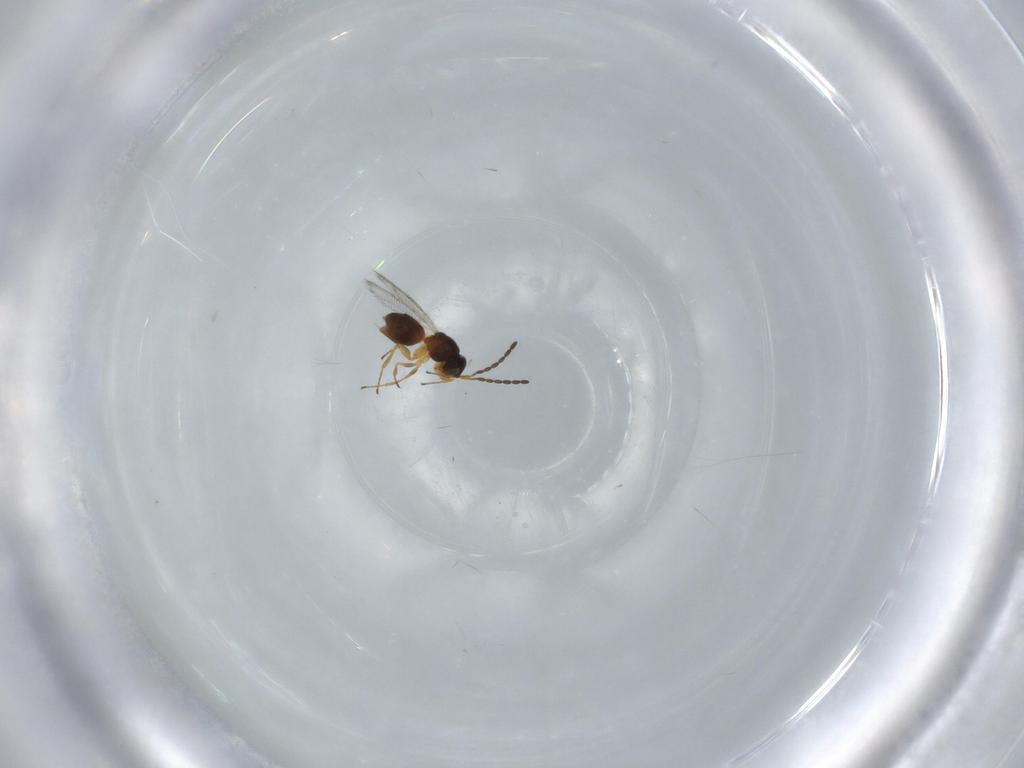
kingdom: Animalia
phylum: Arthropoda
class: Insecta
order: Hymenoptera
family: Figitidae
